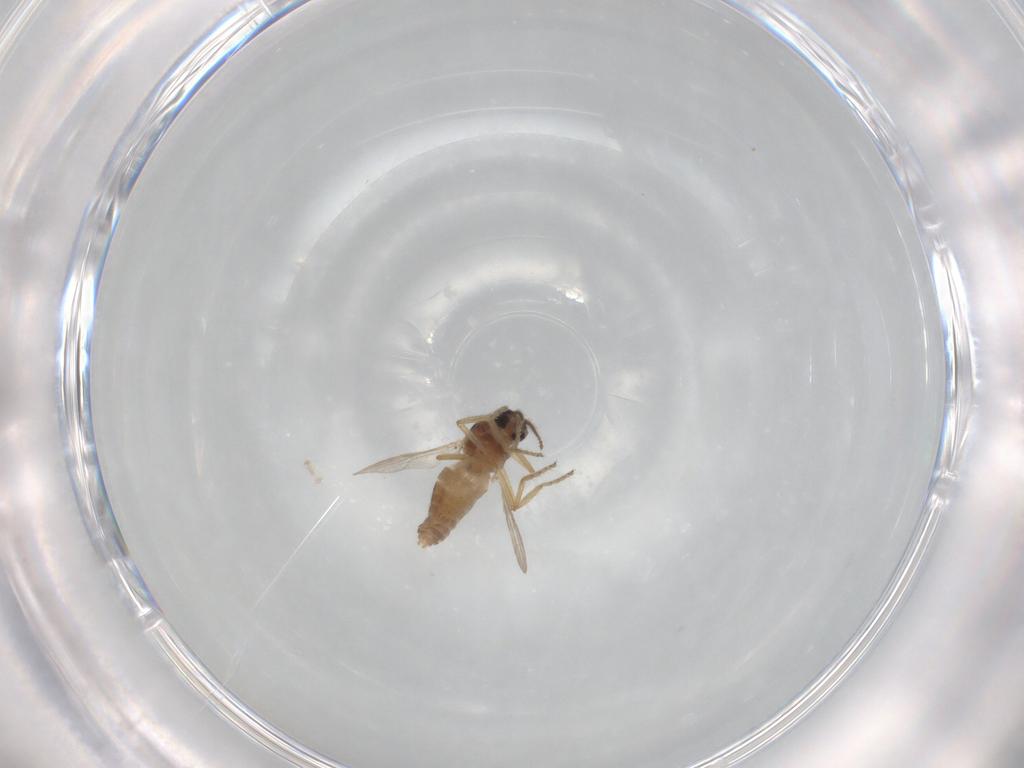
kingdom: Animalia
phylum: Arthropoda
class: Insecta
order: Diptera
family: Ceratopogonidae
